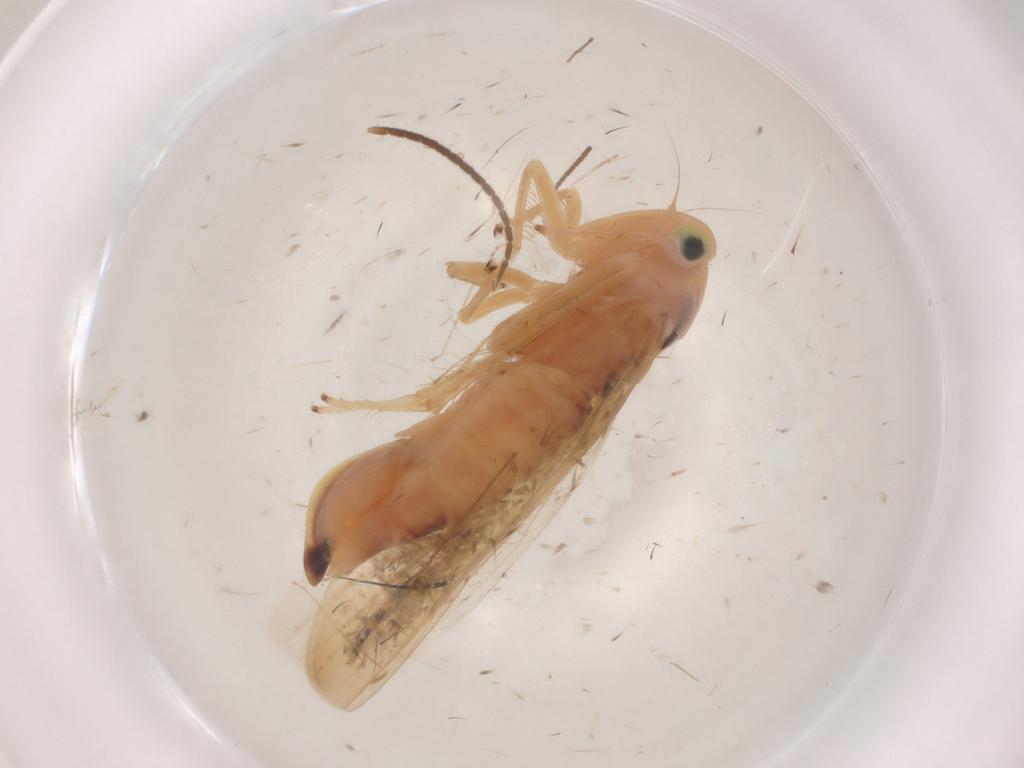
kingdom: Animalia
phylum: Arthropoda
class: Insecta
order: Hemiptera
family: Cicadellidae
